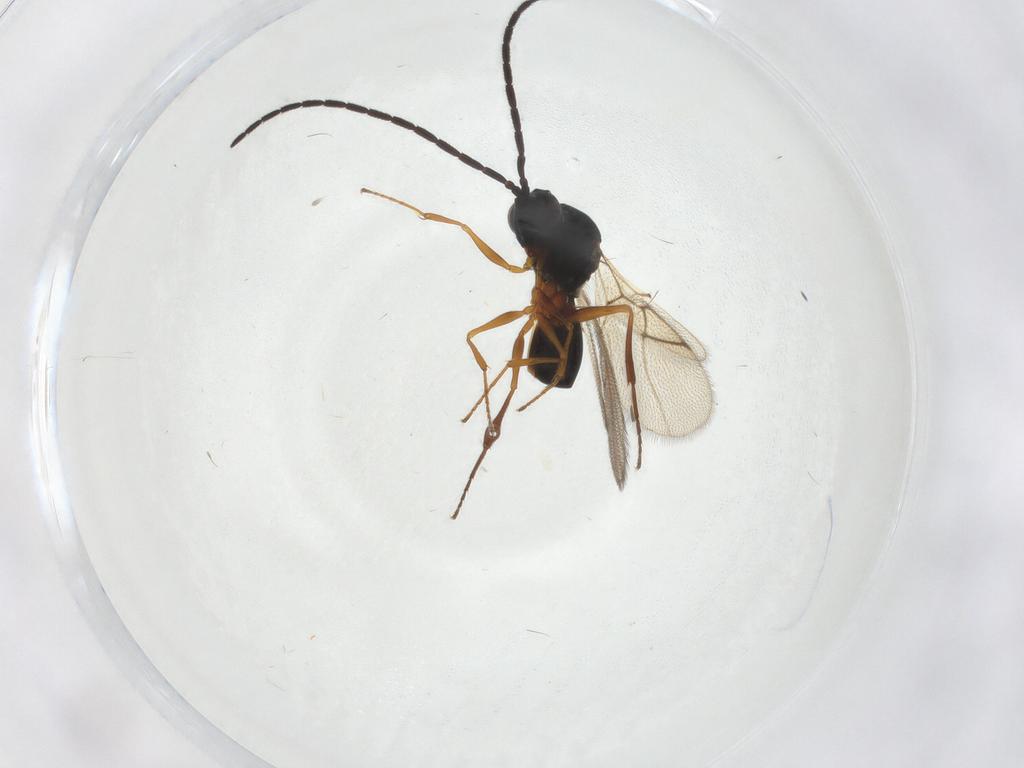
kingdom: Animalia
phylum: Arthropoda
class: Insecta
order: Hymenoptera
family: Figitidae
